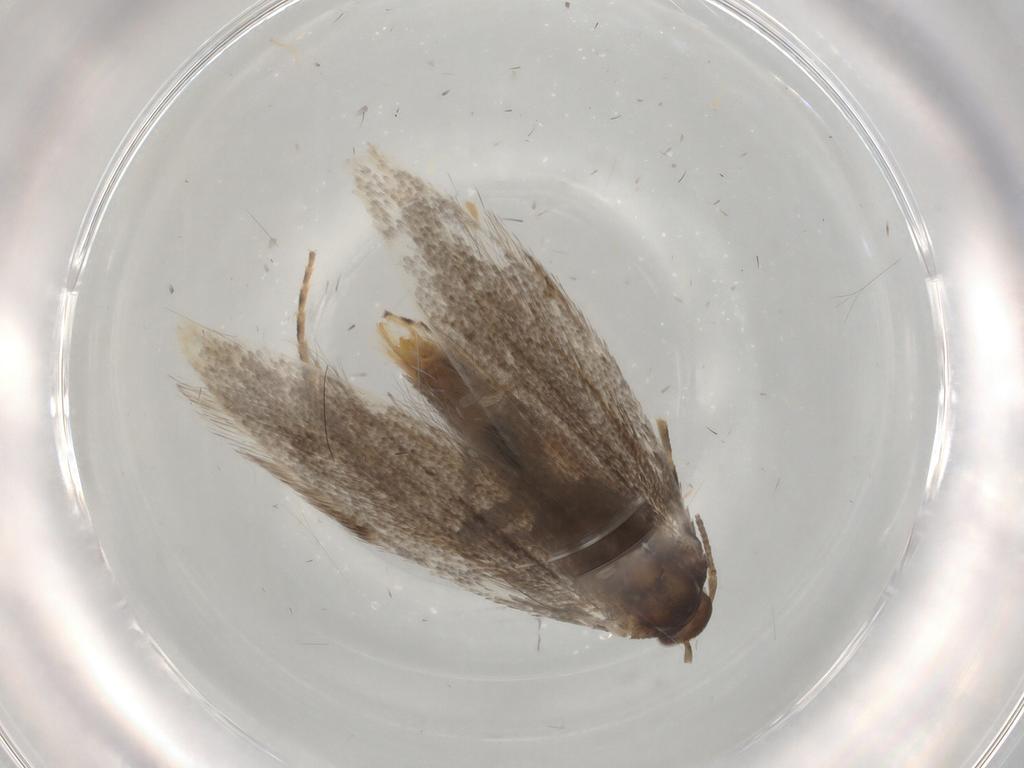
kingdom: Animalia
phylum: Arthropoda
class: Insecta
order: Lepidoptera
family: Elachistidae
